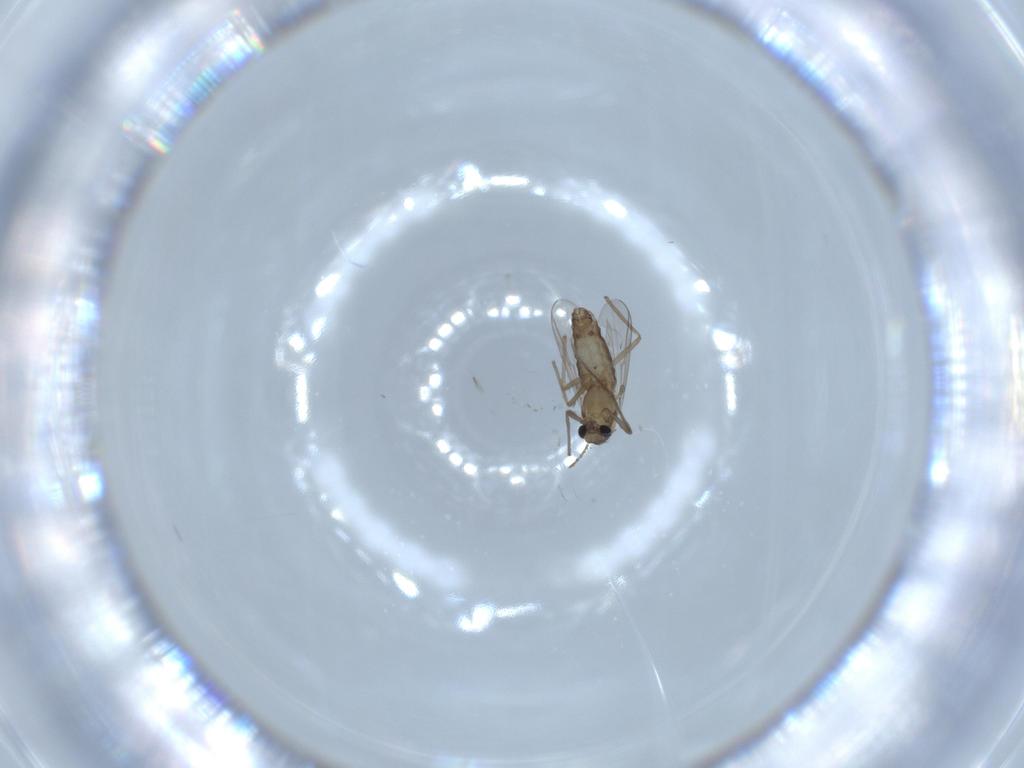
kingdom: Animalia
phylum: Arthropoda
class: Insecta
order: Diptera
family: Chironomidae
